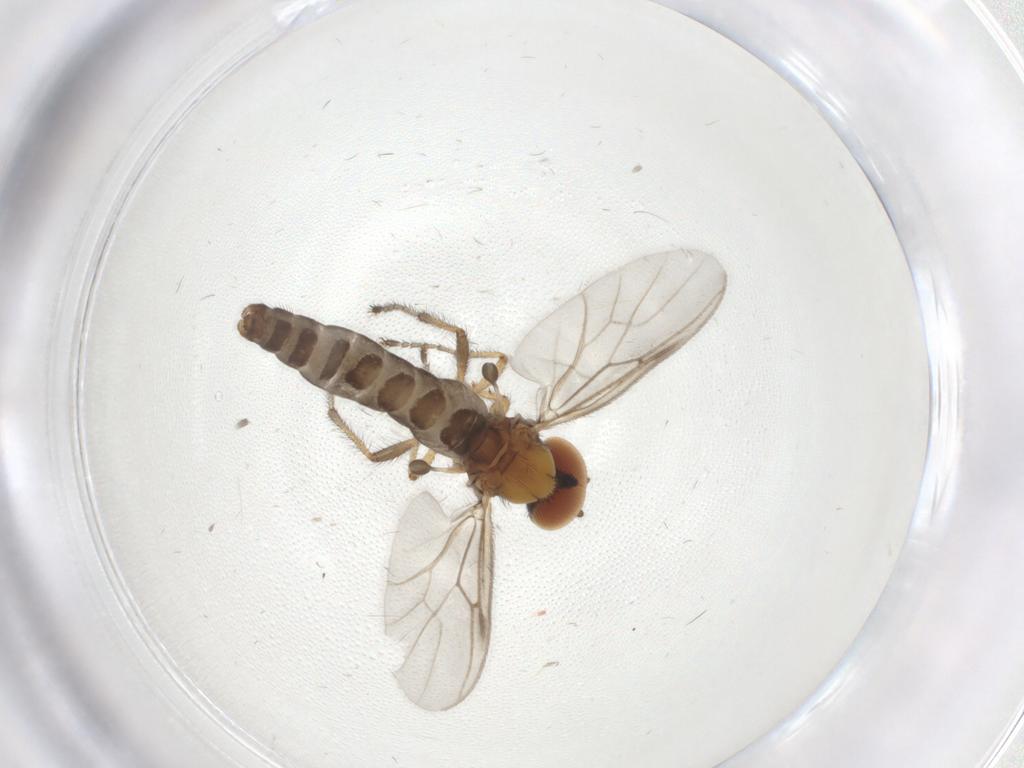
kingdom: Animalia
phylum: Arthropoda
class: Insecta
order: Diptera
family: Bibionidae
